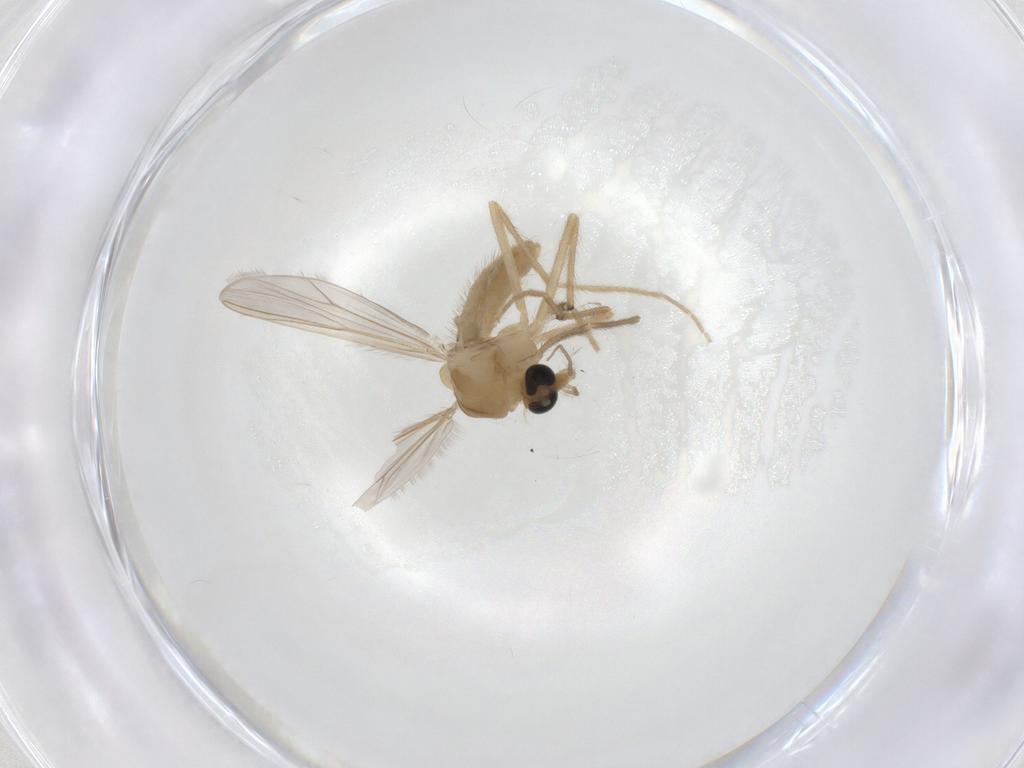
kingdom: Animalia
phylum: Arthropoda
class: Insecta
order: Diptera
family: Chironomidae
